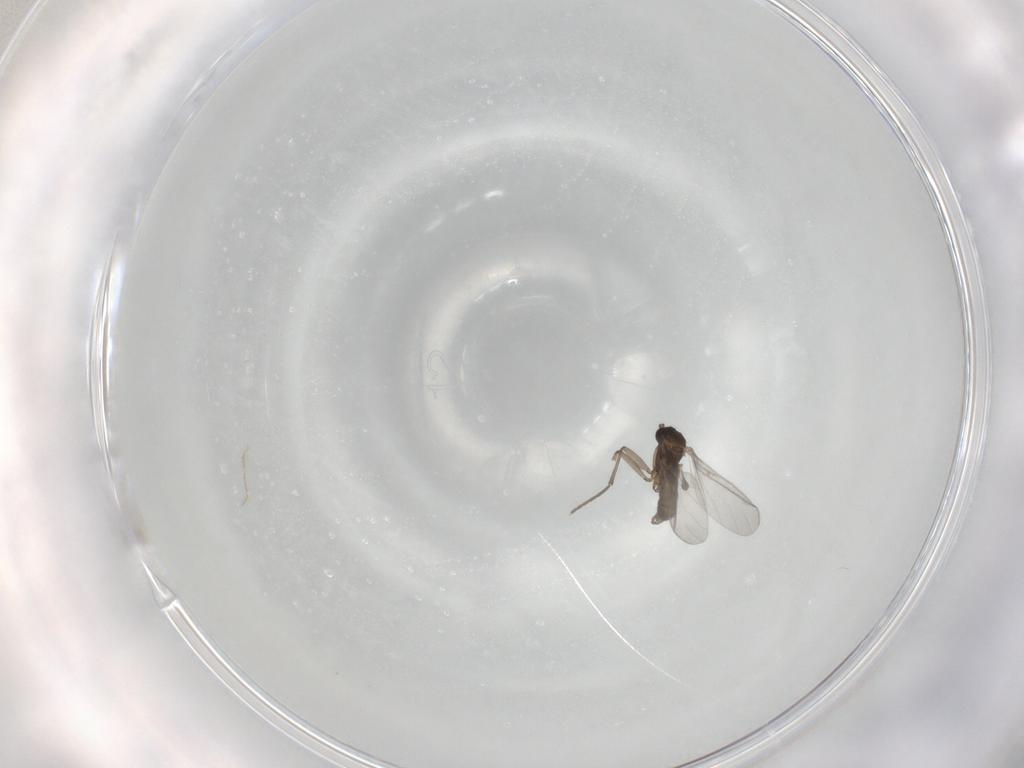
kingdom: Animalia
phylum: Arthropoda
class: Insecta
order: Diptera
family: Sciaridae
